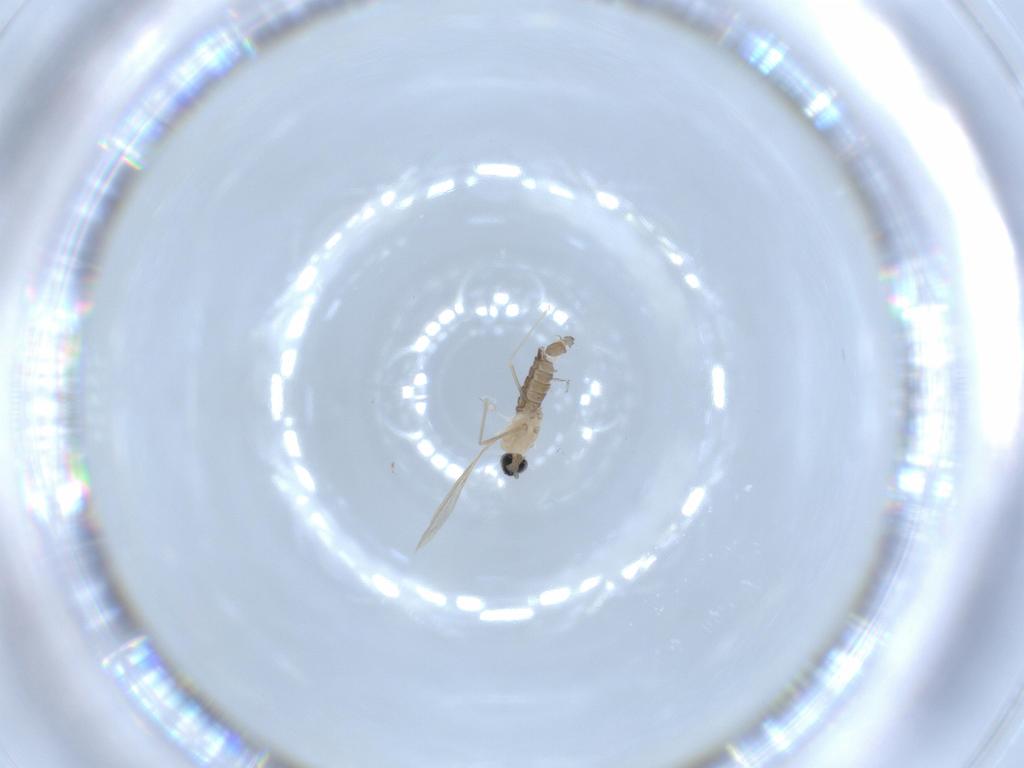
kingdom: Animalia
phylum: Arthropoda
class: Insecta
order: Diptera
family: Cecidomyiidae
